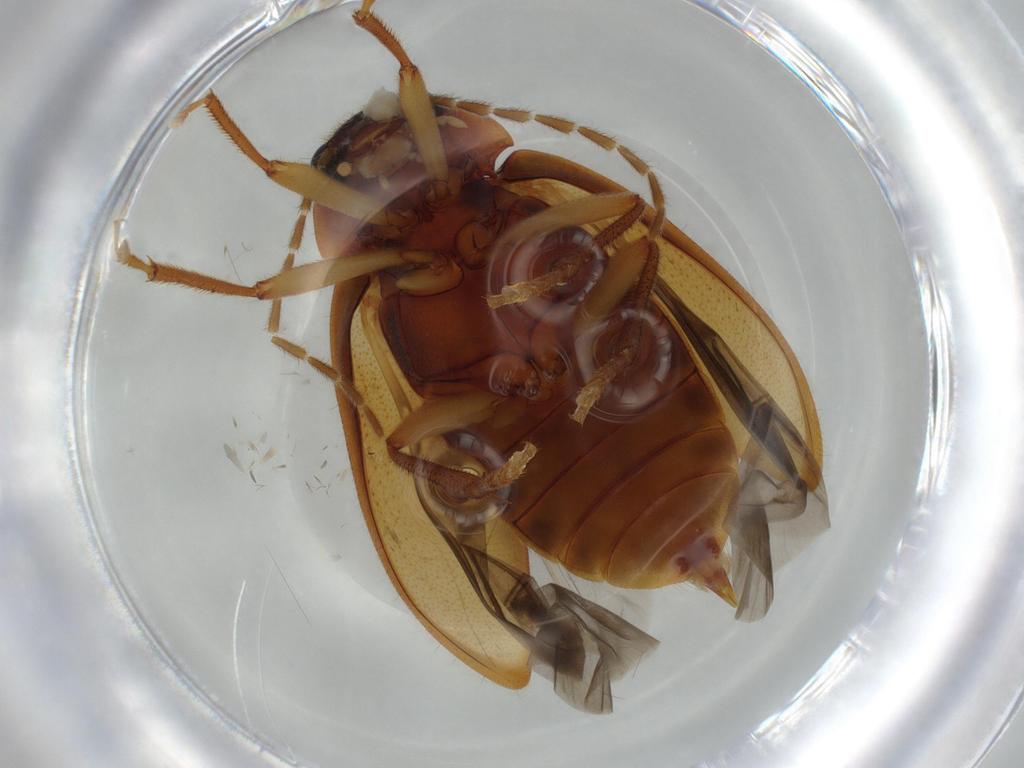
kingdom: Animalia
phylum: Arthropoda
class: Insecta
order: Coleoptera
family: Ptilodactylidae
